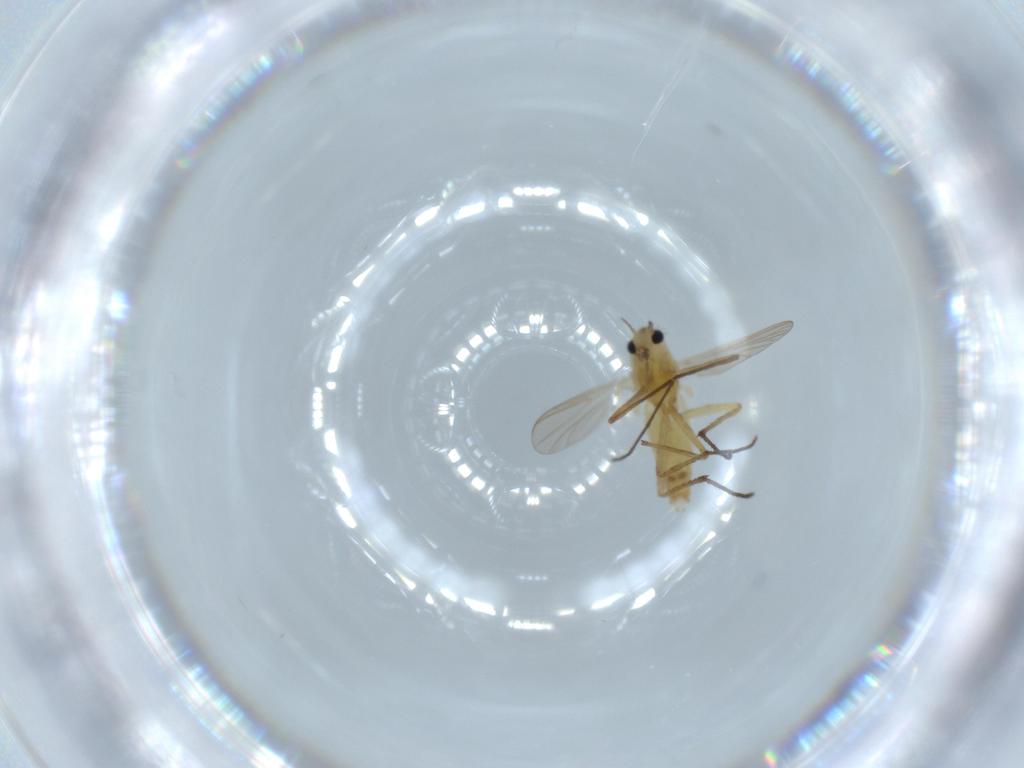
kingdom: Animalia
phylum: Arthropoda
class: Insecta
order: Diptera
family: Chironomidae
